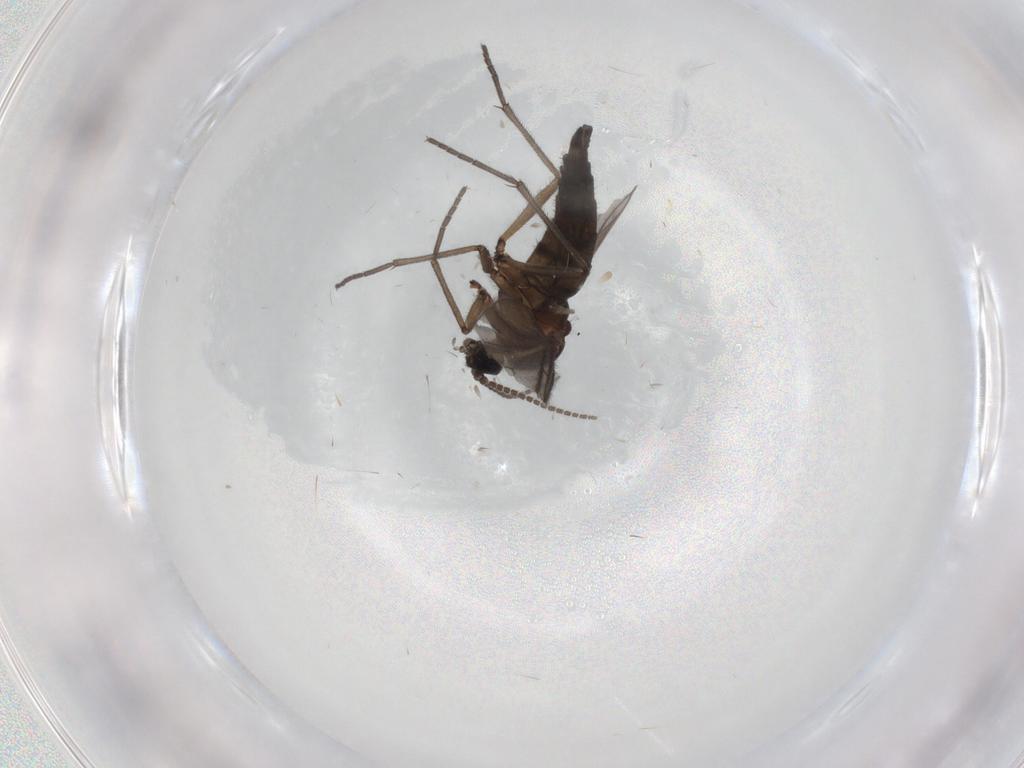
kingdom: Animalia
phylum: Arthropoda
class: Insecta
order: Diptera
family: Sciaridae
